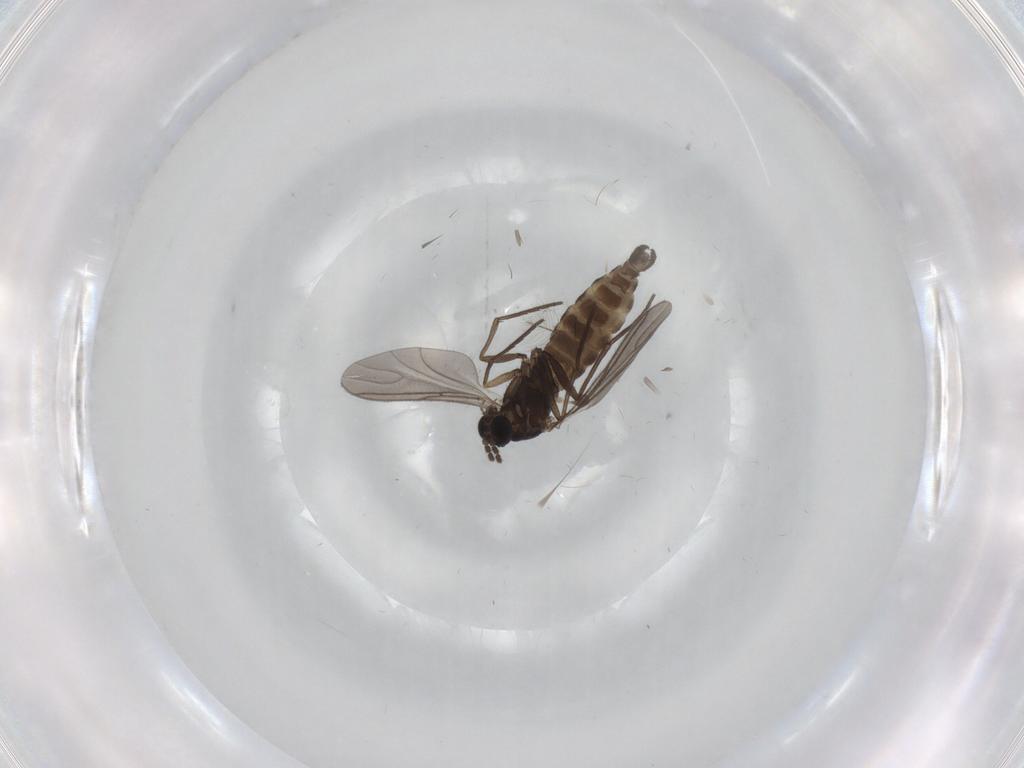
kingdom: Animalia
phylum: Arthropoda
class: Insecta
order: Diptera
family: Sciaridae
